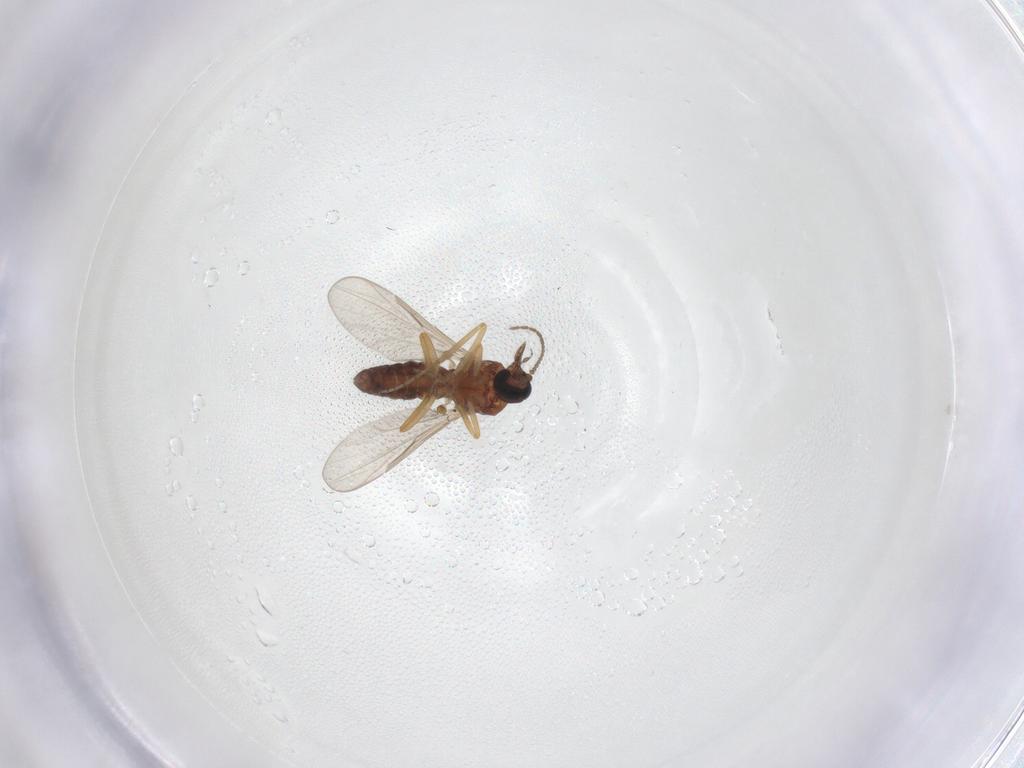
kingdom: Animalia
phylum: Arthropoda
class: Insecta
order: Diptera
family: Ceratopogonidae
